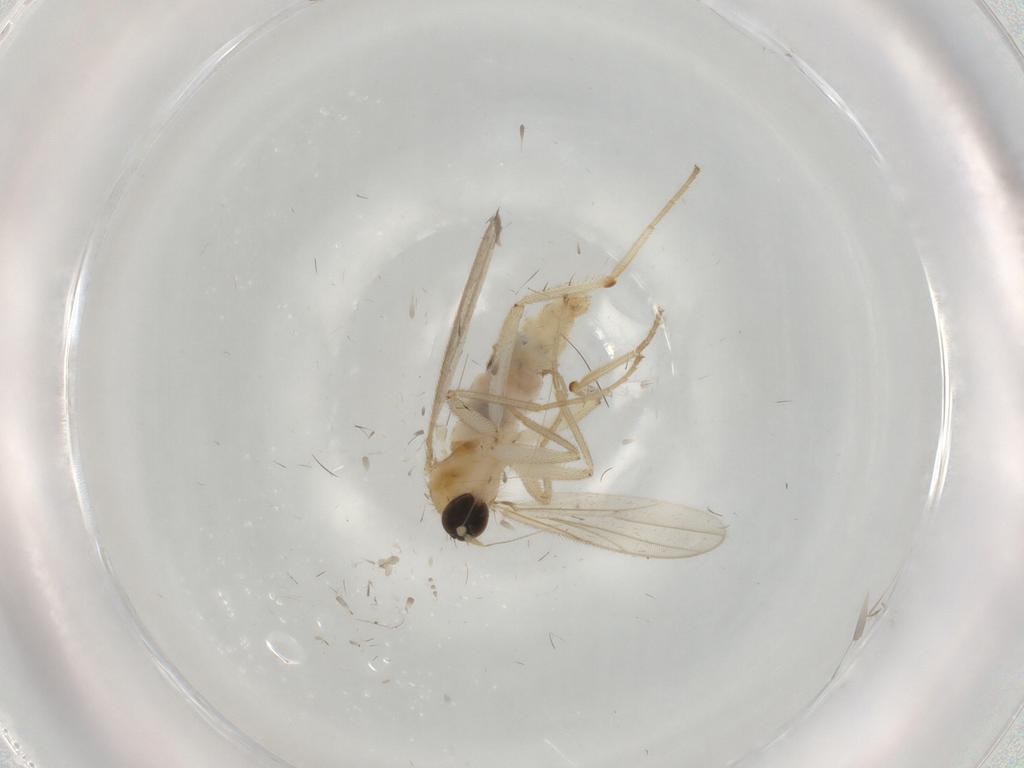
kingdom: Animalia
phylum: Arthropoda
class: Insecta
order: Diptera
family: Hybotidae
